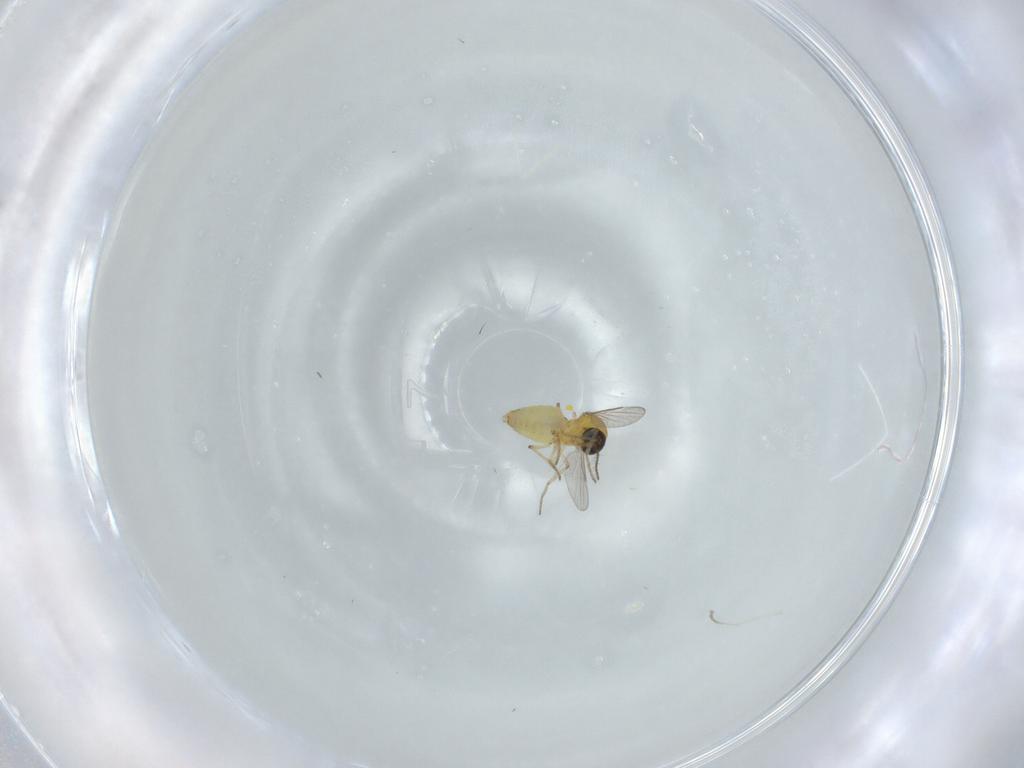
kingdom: Animalia
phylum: Arthropoda
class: Insecta
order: Diptera
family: Ceratopogonidae
